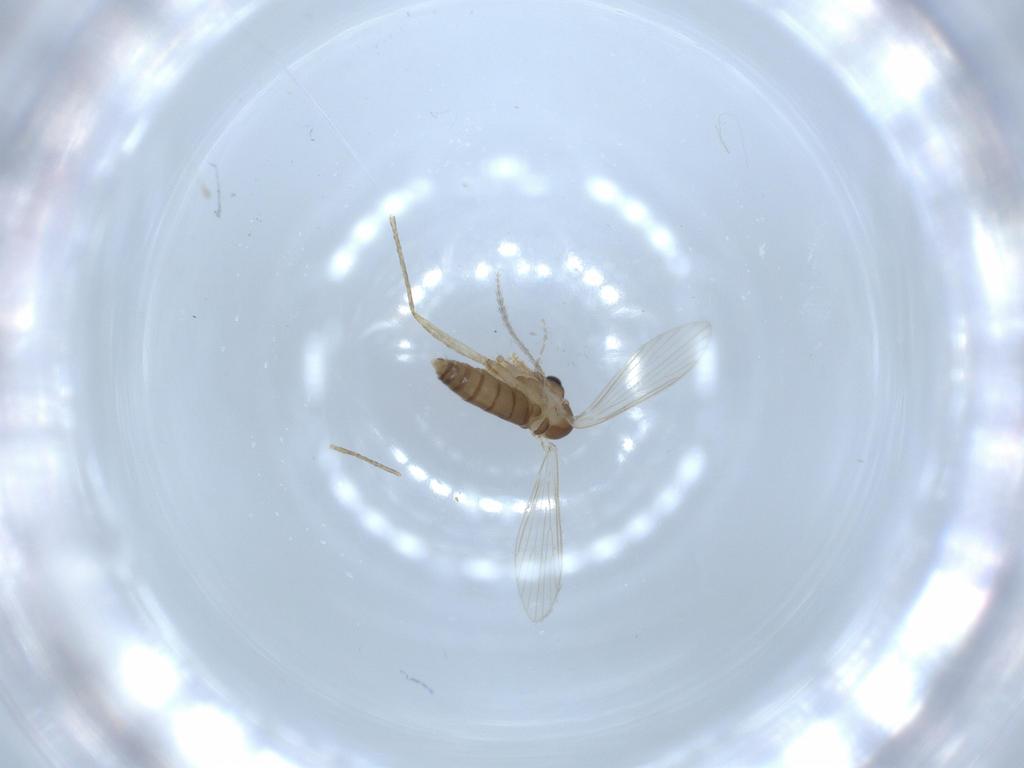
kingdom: Animalia
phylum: Arthropoda
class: Insecta
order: Diptera
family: Psychodidae
